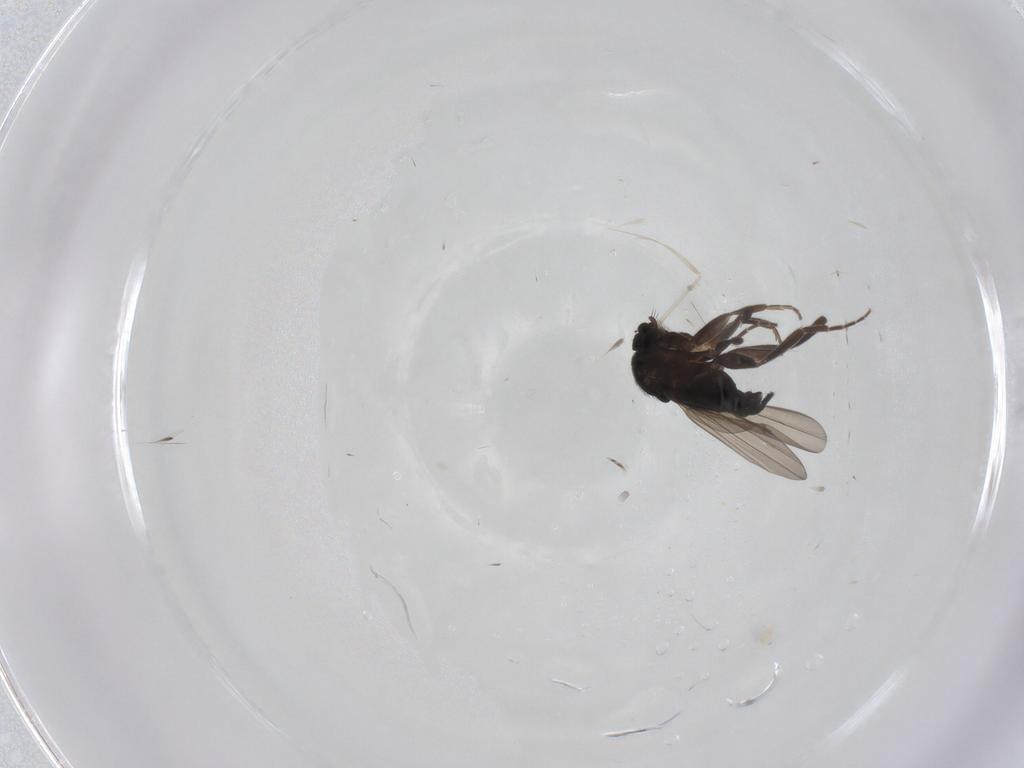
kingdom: Animalia
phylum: Arthropoda
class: Insecta
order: Diptera
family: Phoridae
